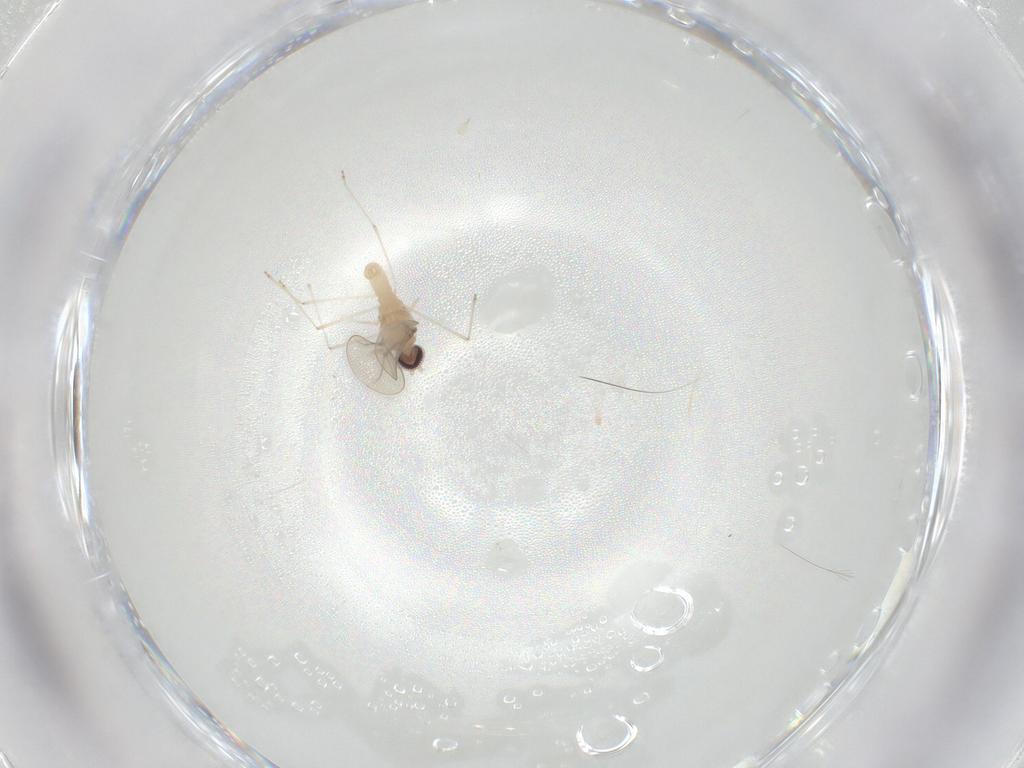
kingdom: Animalia
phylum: Arthropoda
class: Insecta
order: Diptera
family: Cecidomyiidae
